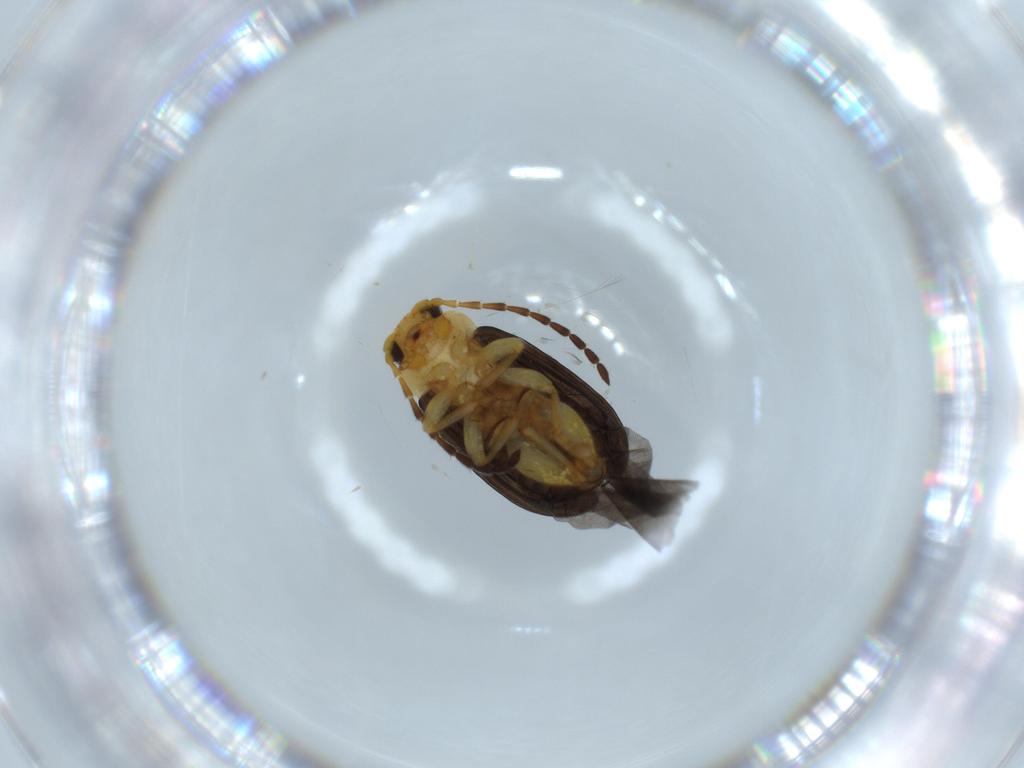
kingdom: Animalia
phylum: Arthropoda
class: Insecta
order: Coleoptera
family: Chrysomelidae
